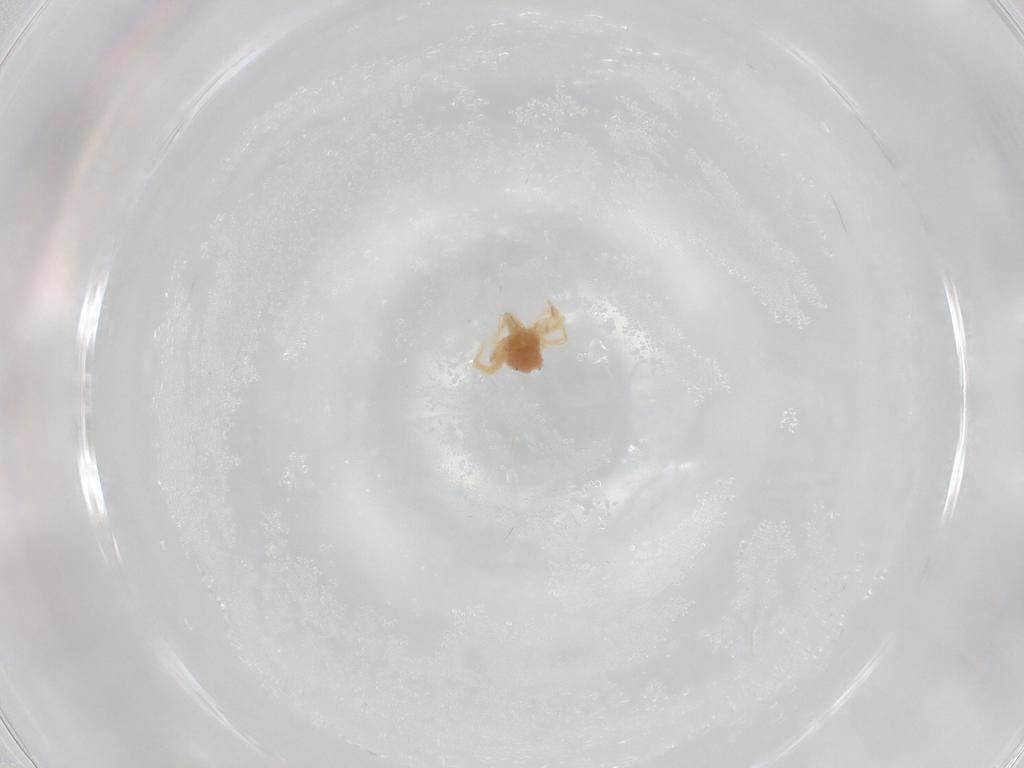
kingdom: Animalia
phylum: Arthropoda
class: Arachnida
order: Trombidiformes
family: Anystidae
